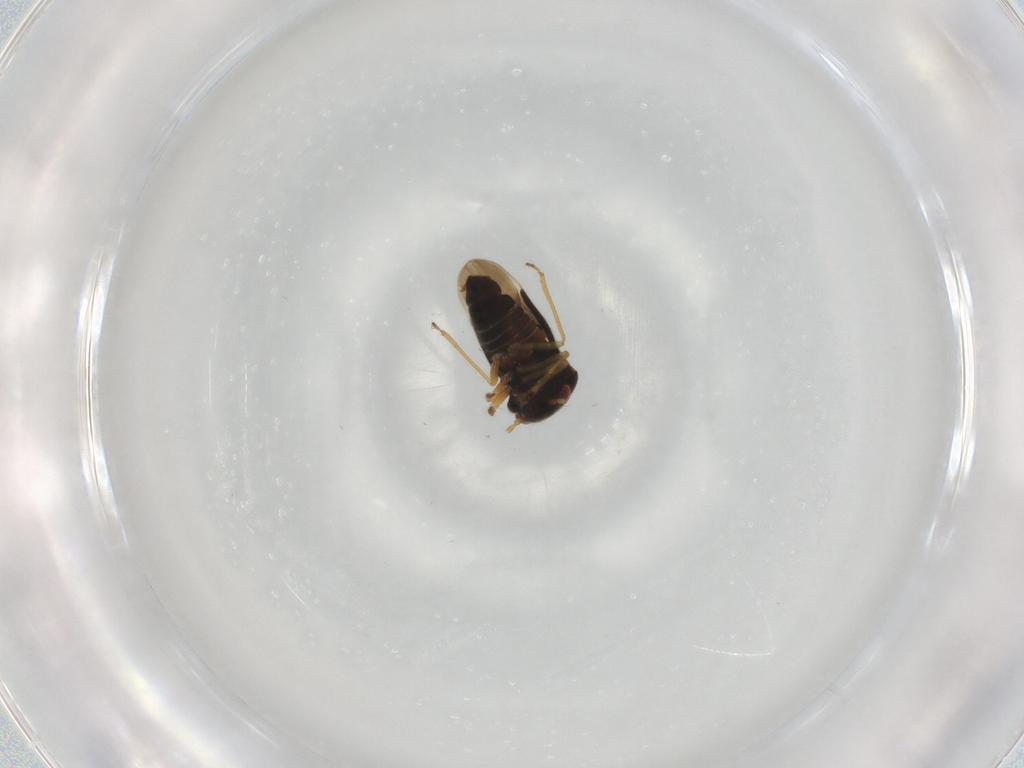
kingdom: Animalia
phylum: Arthropoda
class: Insecta
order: Hemiptera
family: Schizopteridae
